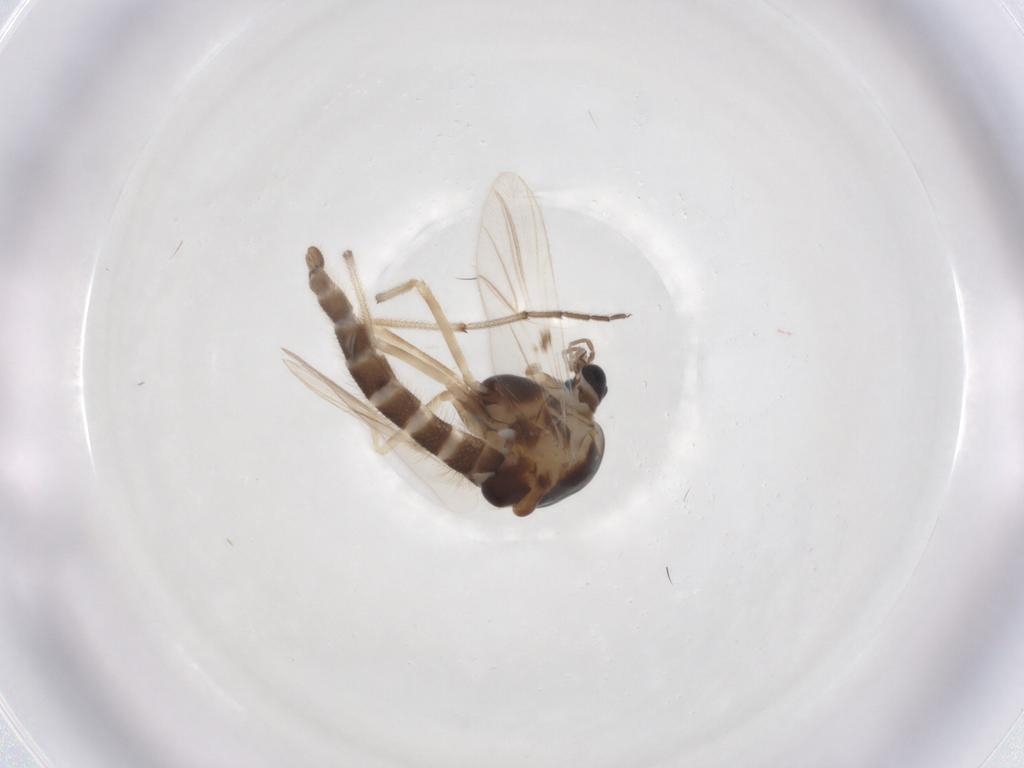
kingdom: Animalia
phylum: Arthropoda
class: Insecta
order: Diptera
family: Chironomidae
